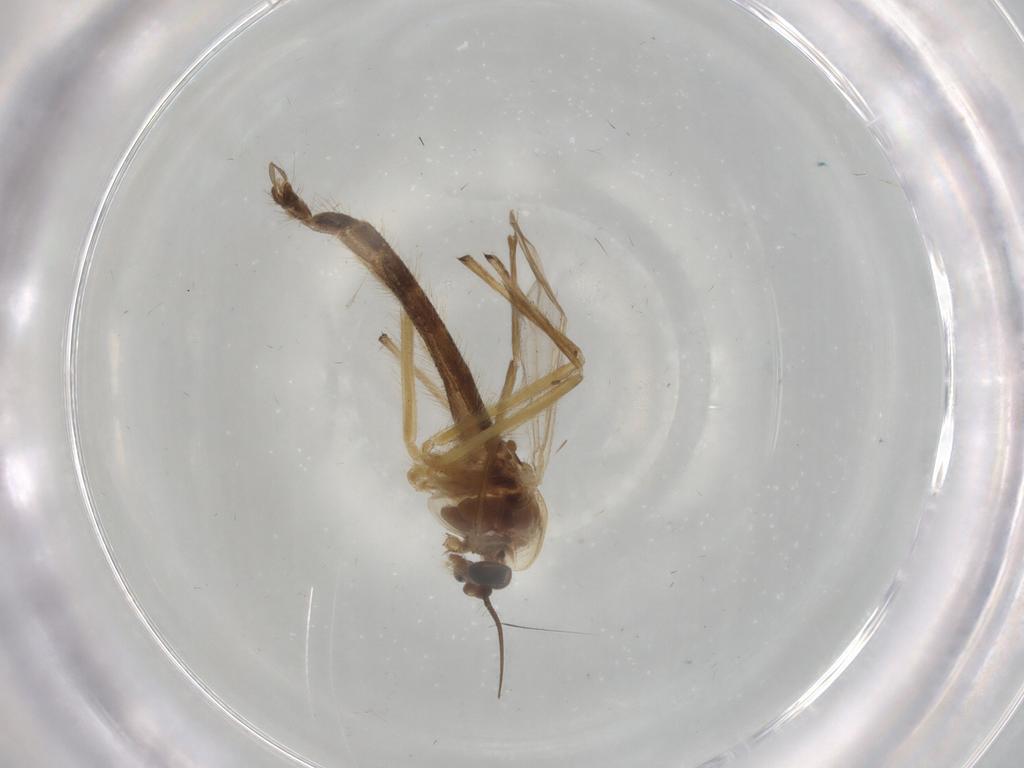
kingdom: Animalia
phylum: Arthropoda
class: Insecta
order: Diptera
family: Chironomidae
